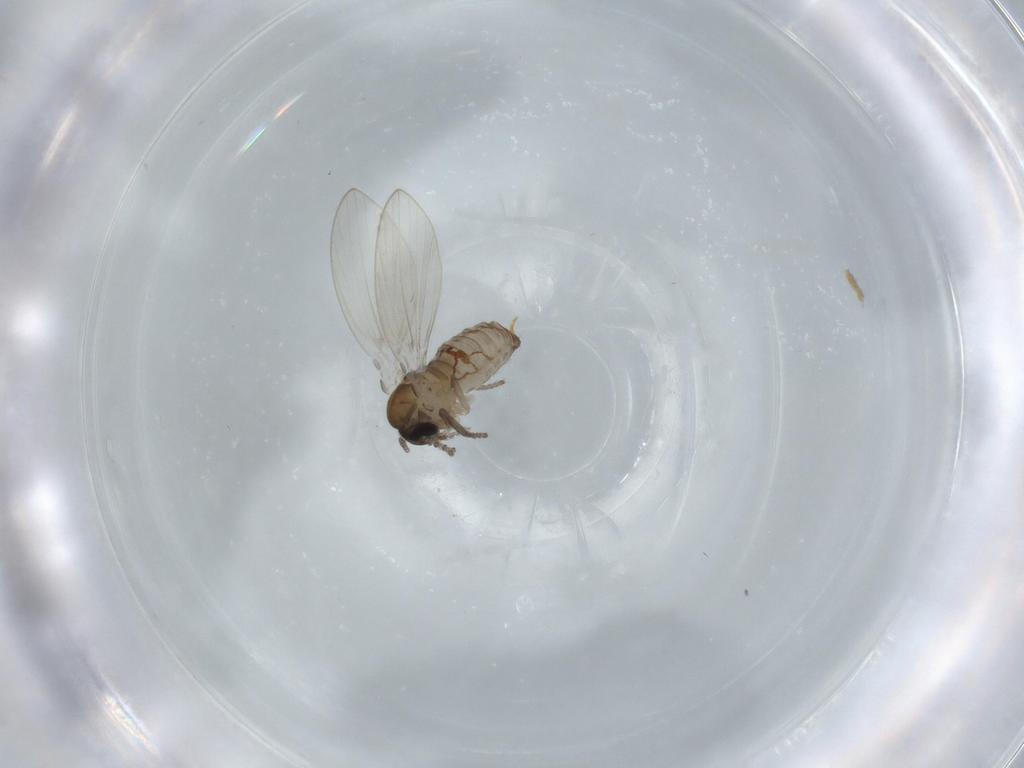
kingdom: Animalia
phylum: Arthropoda
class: Insecta
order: Diptera
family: Psychodidae
